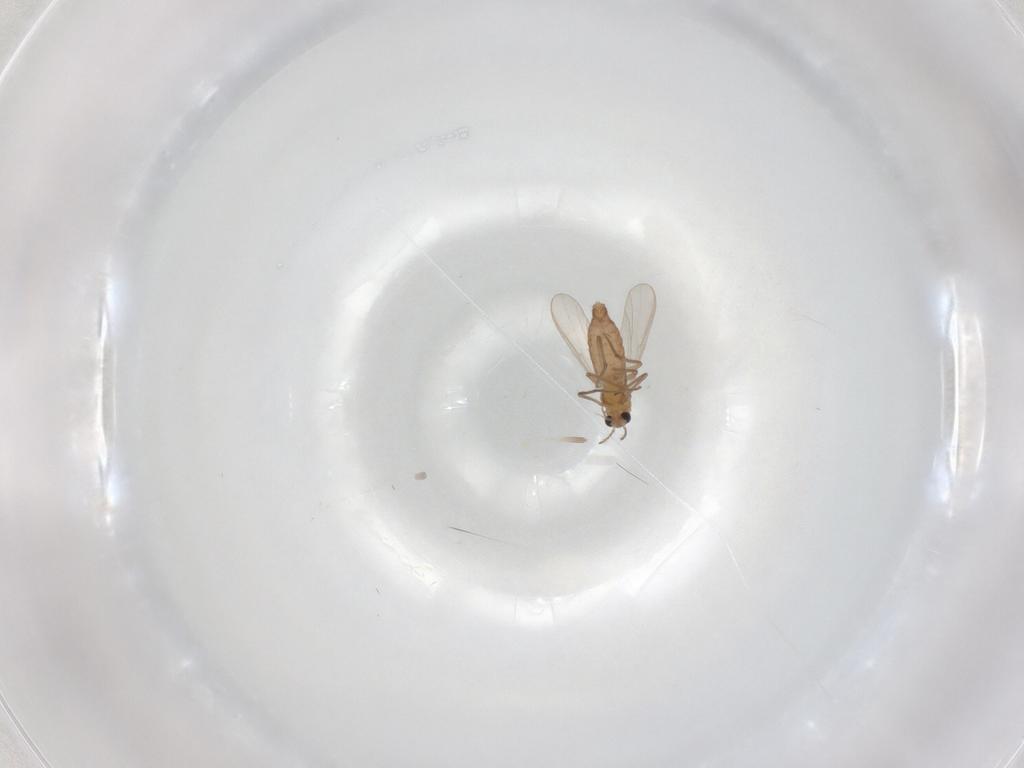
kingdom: Animalia
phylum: Arthropoda
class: Insecta
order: Diptera
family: Chironomidae
